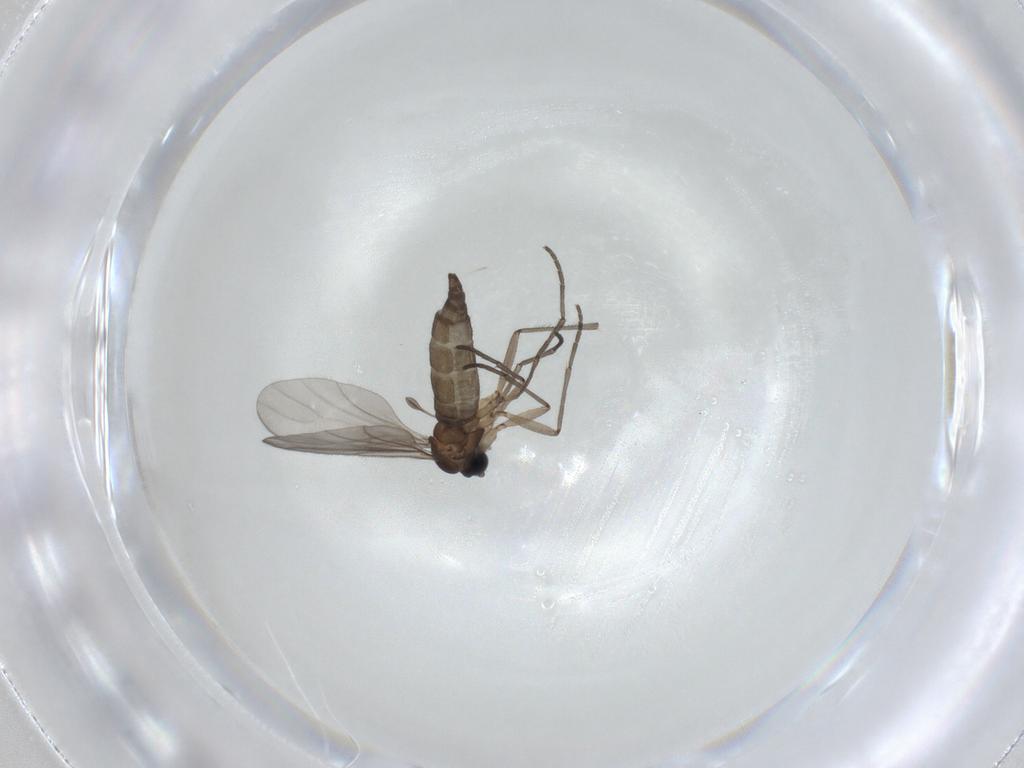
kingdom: Animalia
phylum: Arthropoda
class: Insecta
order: Diptera
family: Sciaridae
